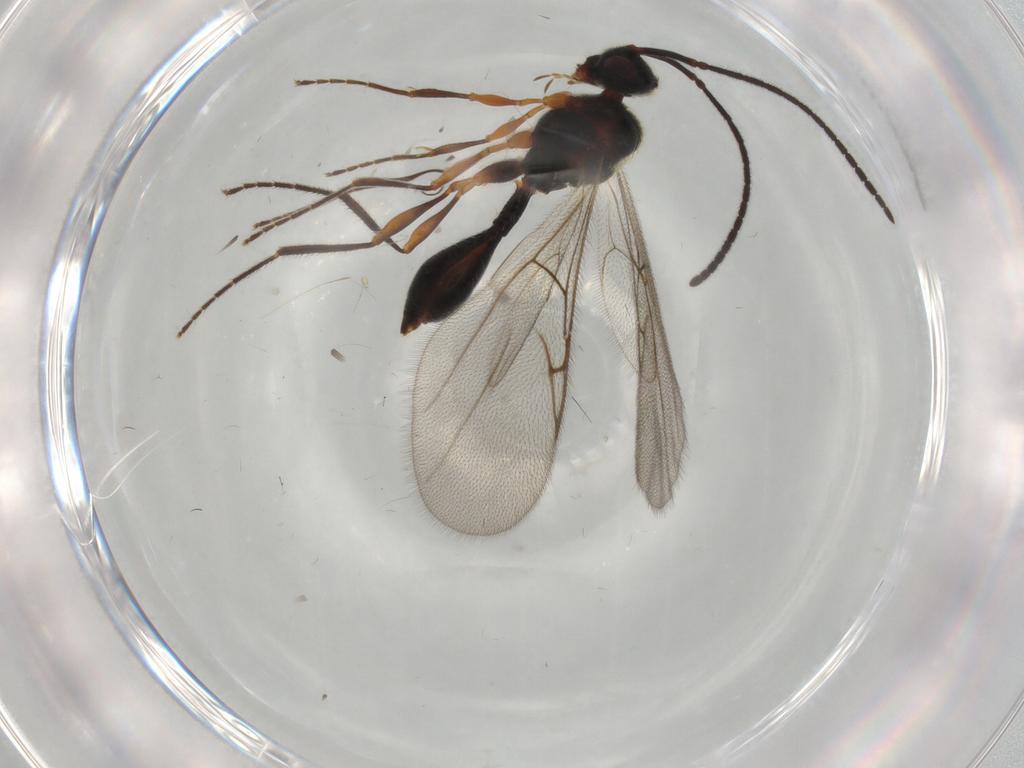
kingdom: Animalia
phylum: Arthropoda
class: Insecta
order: Hymenoptera
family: Diapriidae
